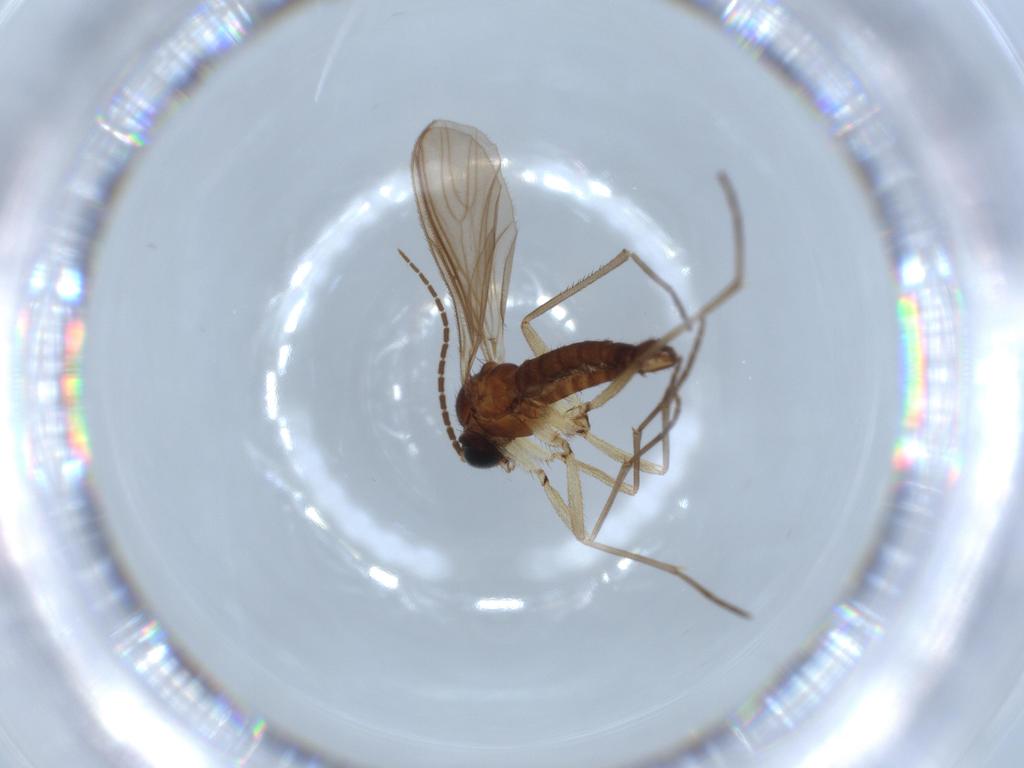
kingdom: Animalia
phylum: Arthropoda
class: Insecta
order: Diptera
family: Sciaridae
